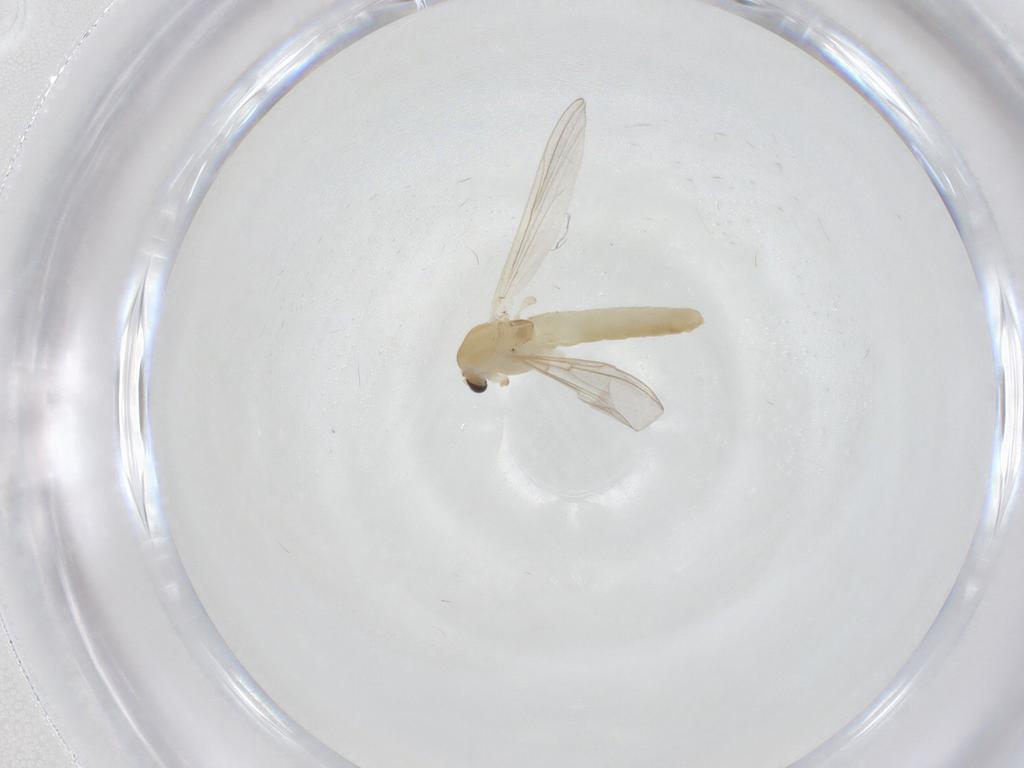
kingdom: Animalia
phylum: Arthropoda
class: Insecta
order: Diptera
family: Chironomidae
